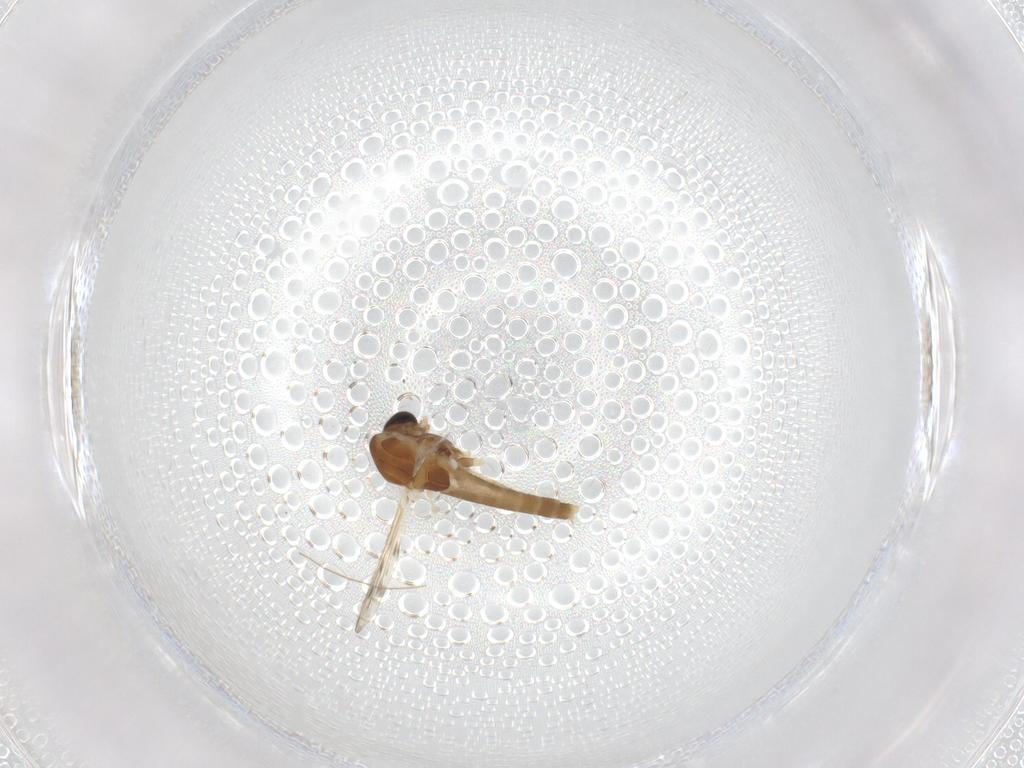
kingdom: Animalia
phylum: Arthropoda
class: Insecta
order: Diptera
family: Chironomidae
